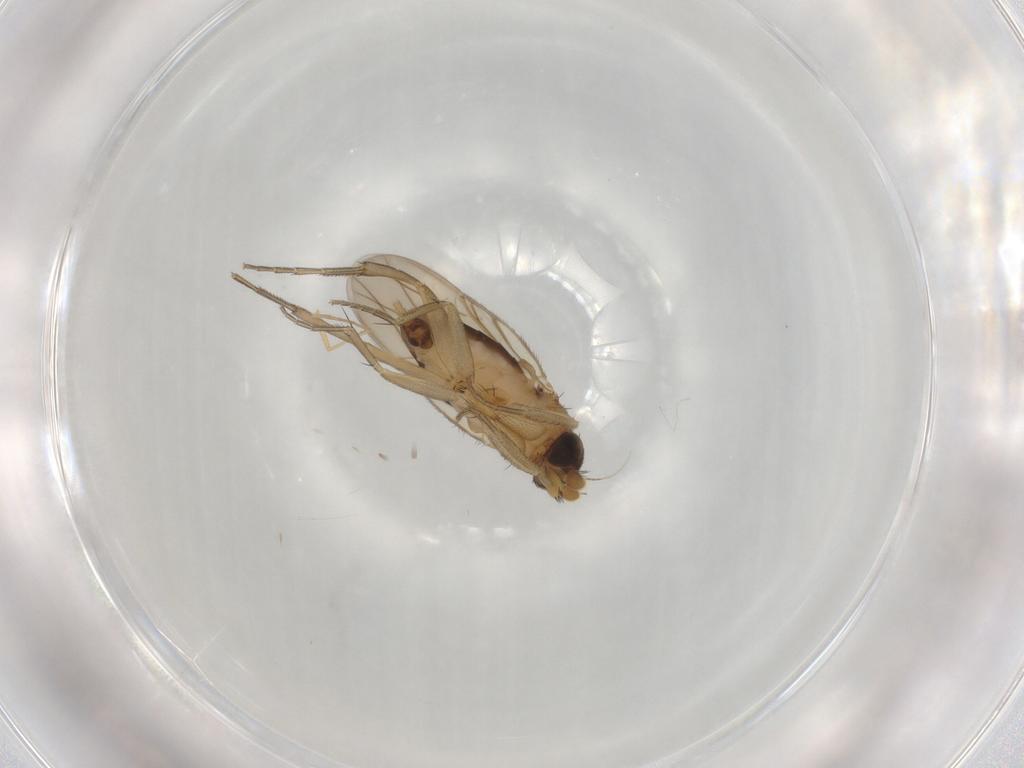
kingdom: Animalia
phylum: Arthropoda
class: Insecta
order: Diptera
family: Phoridae
